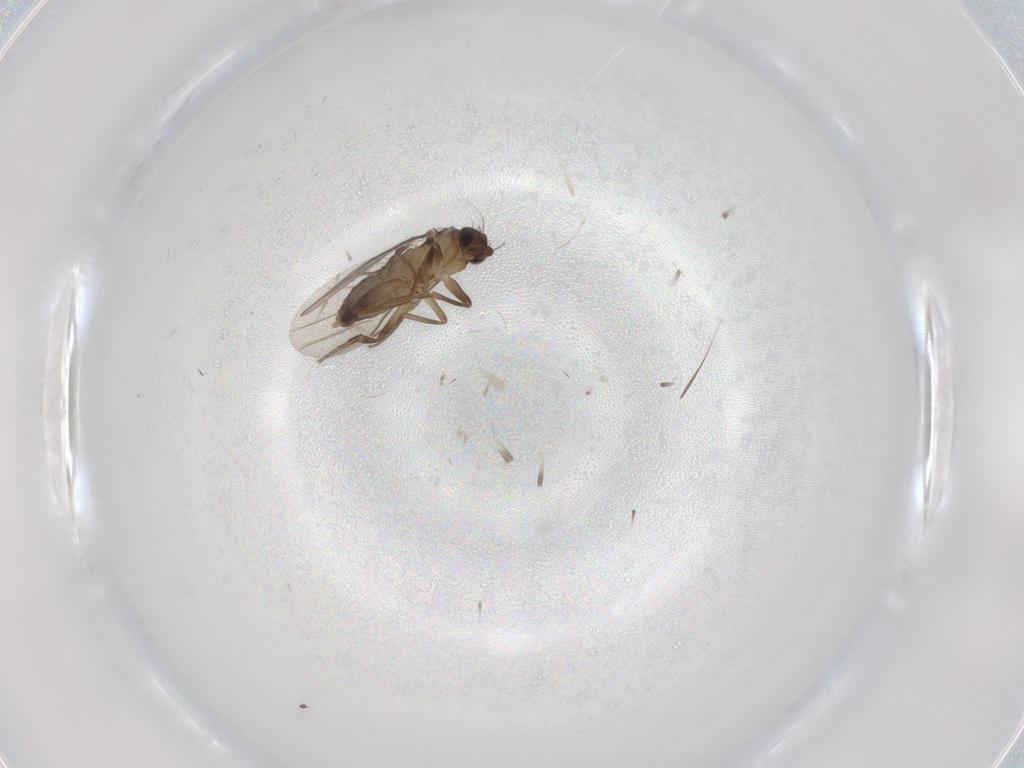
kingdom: Animalia
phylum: Arthropoda
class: Insecta
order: Diptera
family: Phoridae
